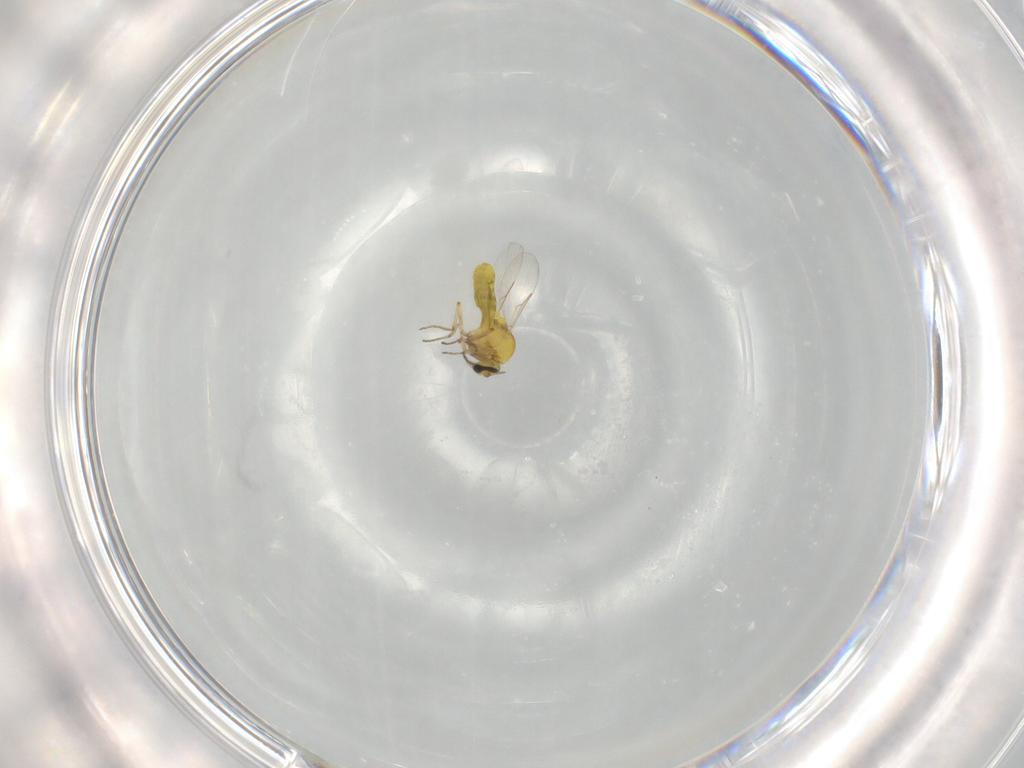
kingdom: Animalia
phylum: Arthropoda
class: Insecta
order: Diptera
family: Ceratopogonidae
